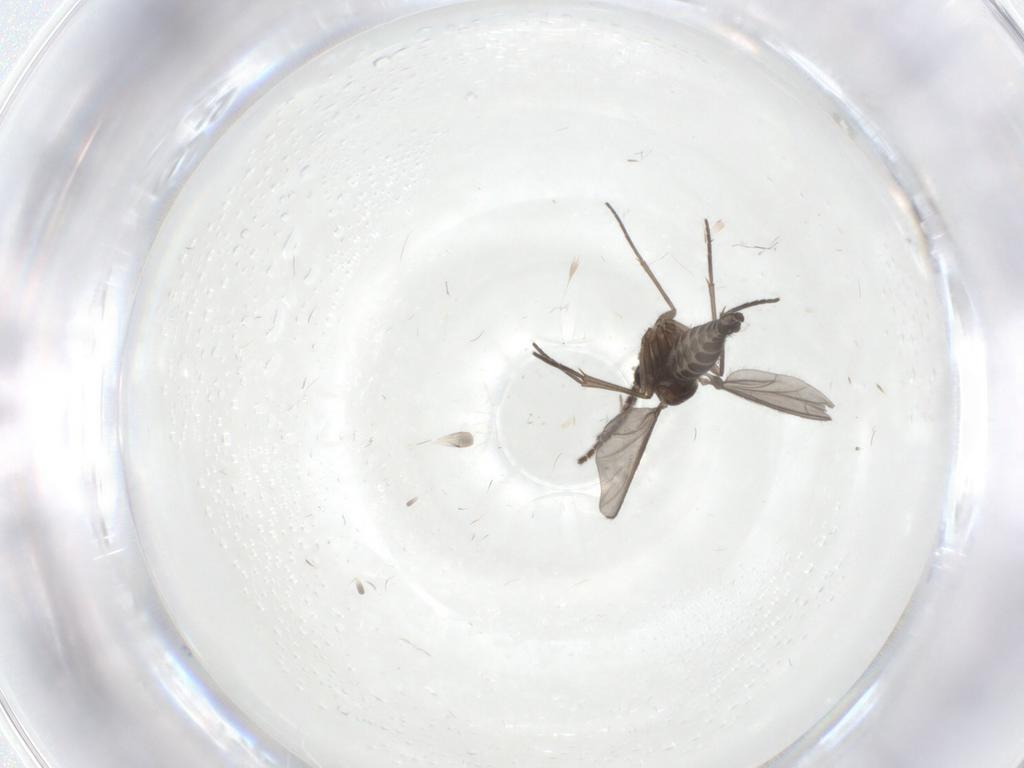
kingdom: Animalia
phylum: Arthropoda
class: Insecta
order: Diptera
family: Sciaridae
